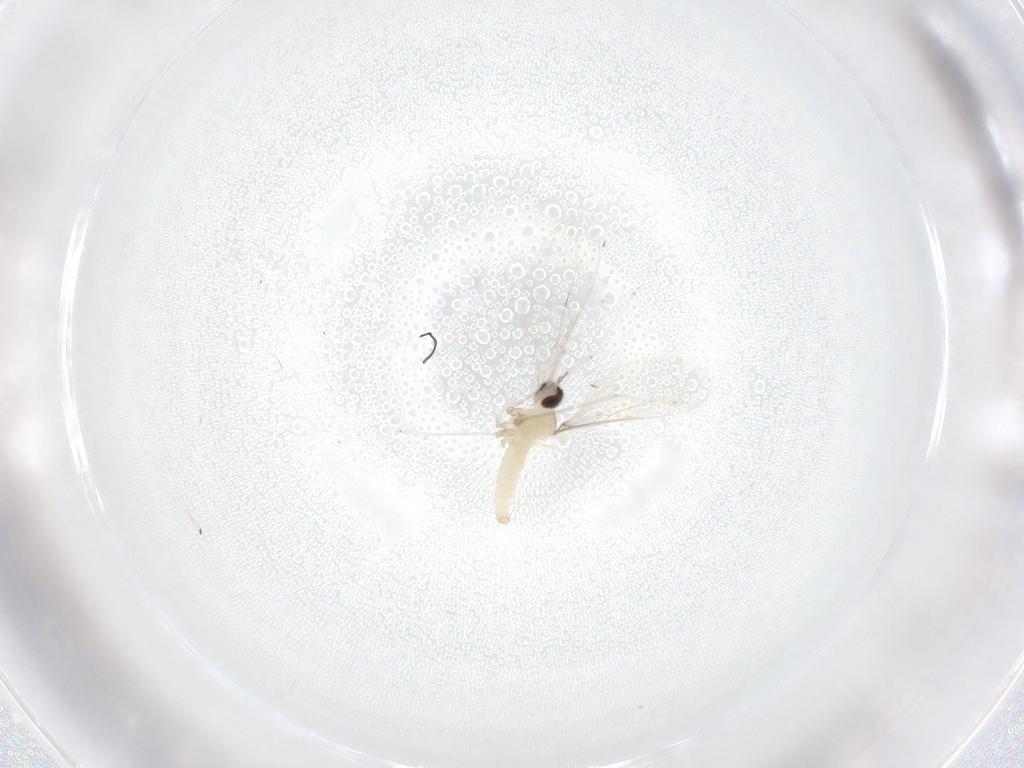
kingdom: Animalia
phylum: Arthropoda
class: Insecta
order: Diptera
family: Cecidomyiidae
